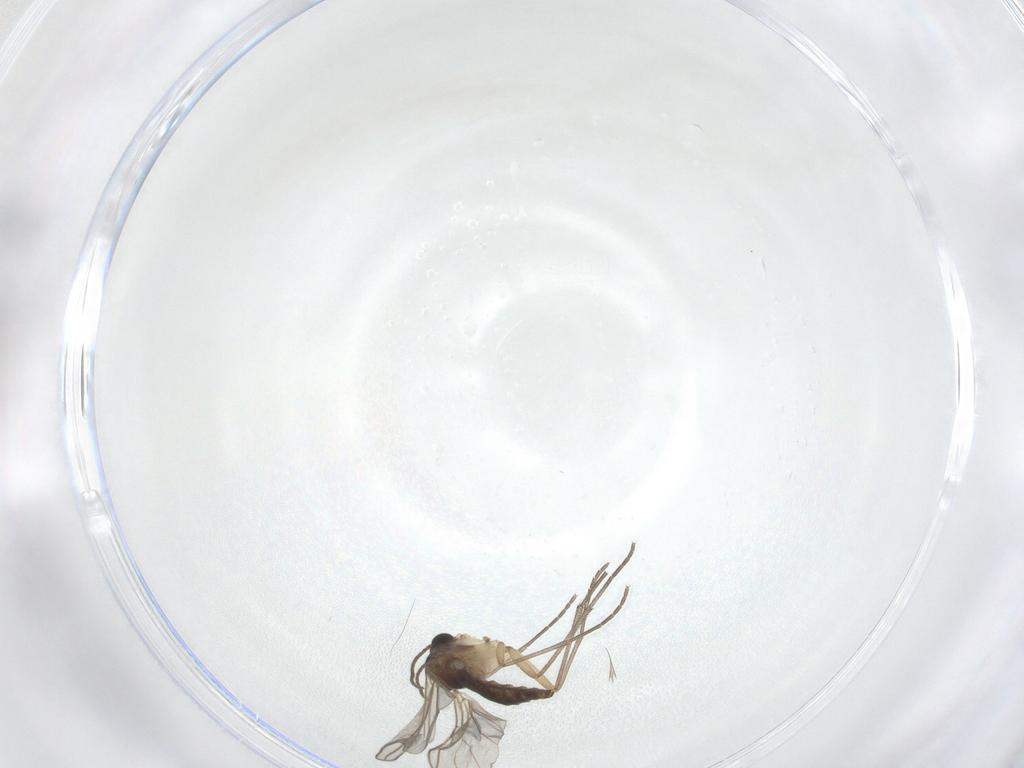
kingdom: Animalia
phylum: Arthropoda
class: Insecta
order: Diptera
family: Sciaridae
